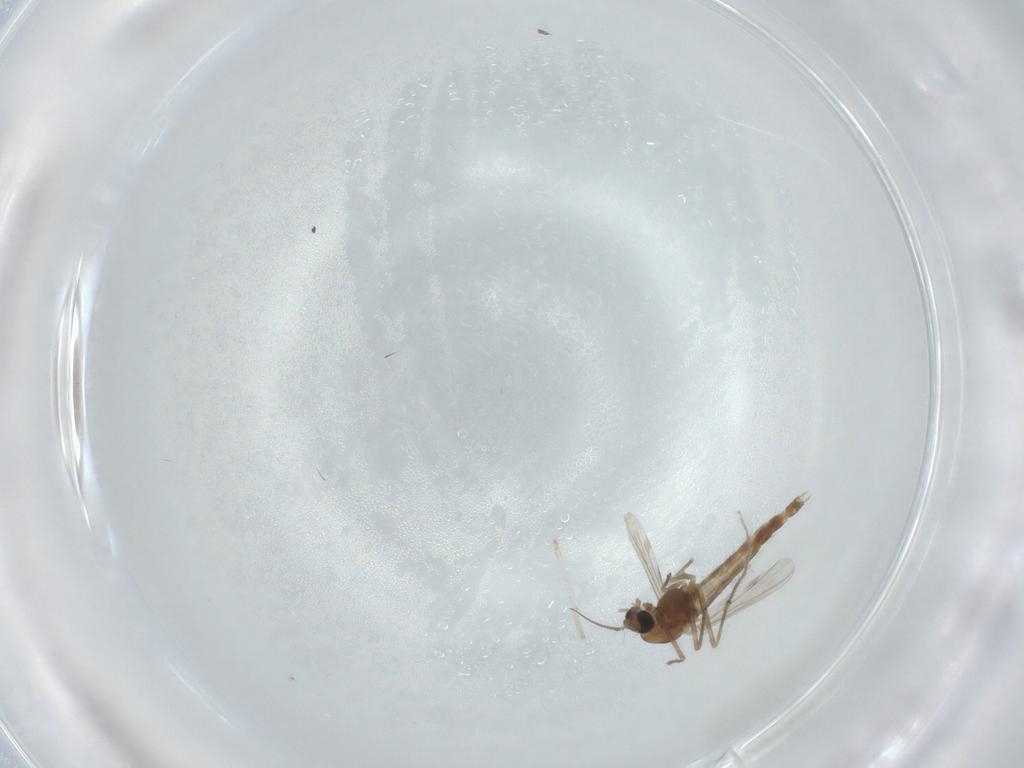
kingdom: Animalia
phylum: Arthropoda
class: Insecta
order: Diptera
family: Chironomidae
